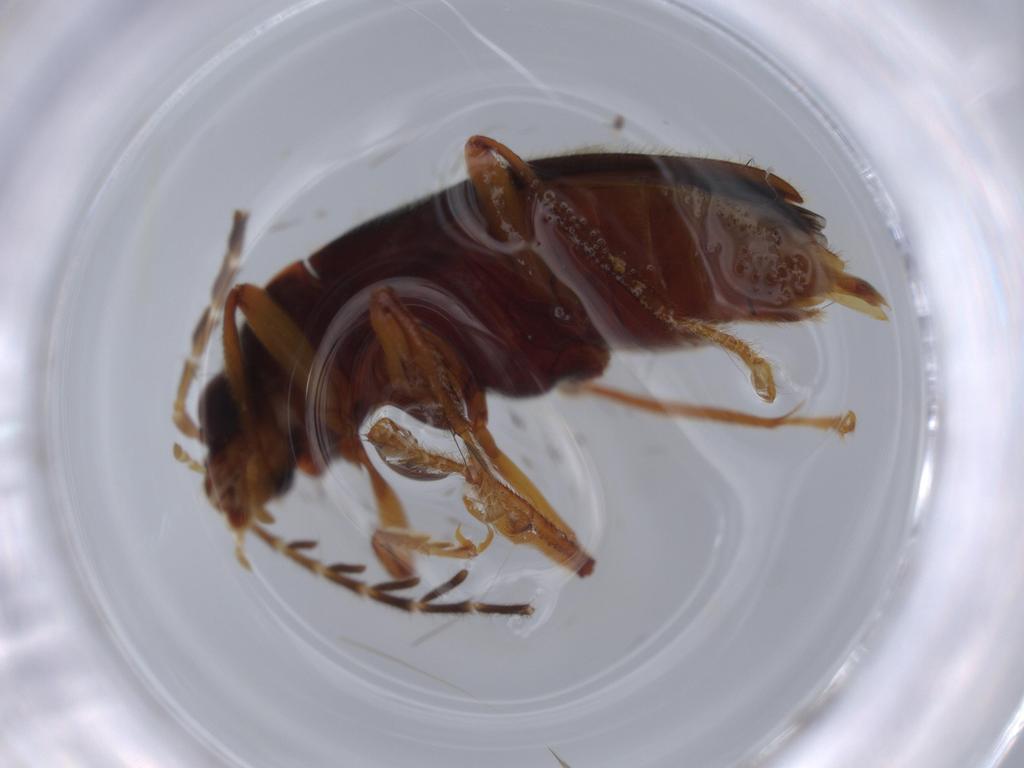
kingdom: Animalia
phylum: Arthropoda
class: Insecta
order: Coleoptera
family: Ptilodactylidae
